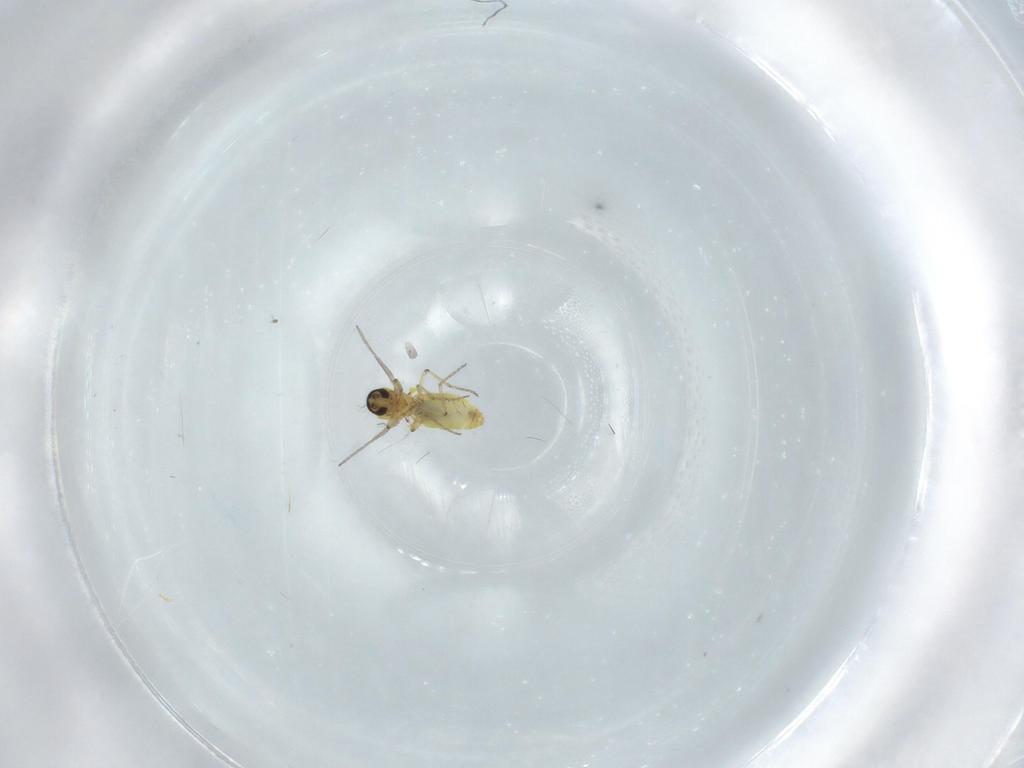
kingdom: Animalia
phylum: Arthropoda
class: Insecta
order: Diptera
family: Ceratopogonidae
